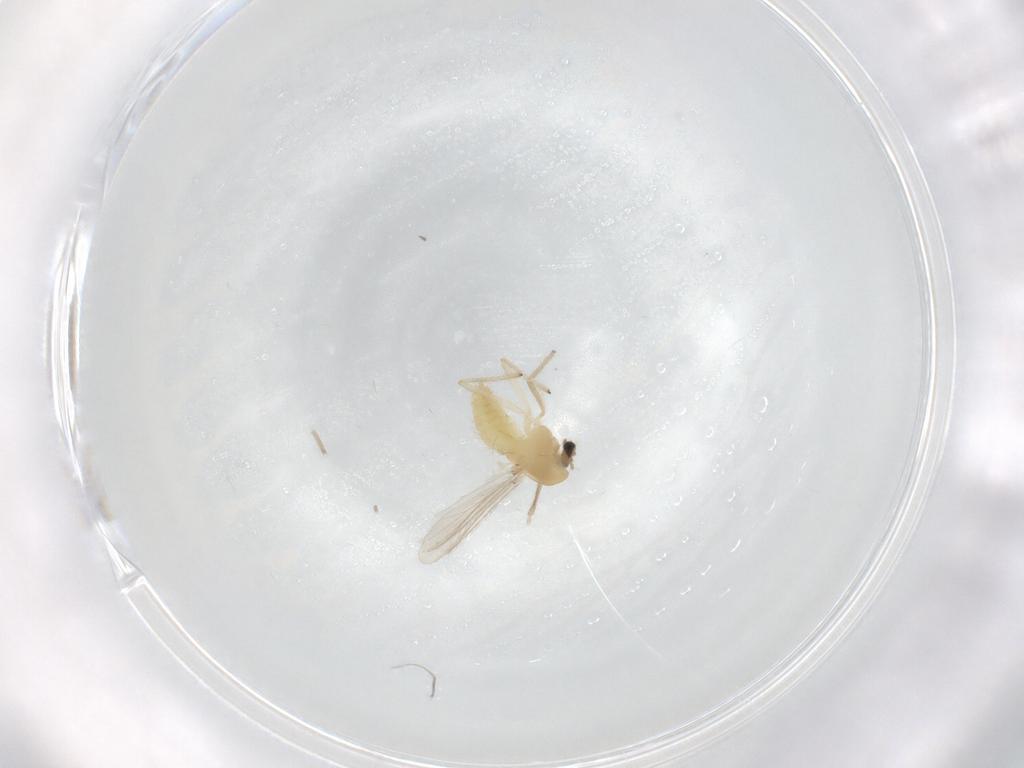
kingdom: Animalia
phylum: Arthropoda
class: Insecta
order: Diptera
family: Chironomidae
